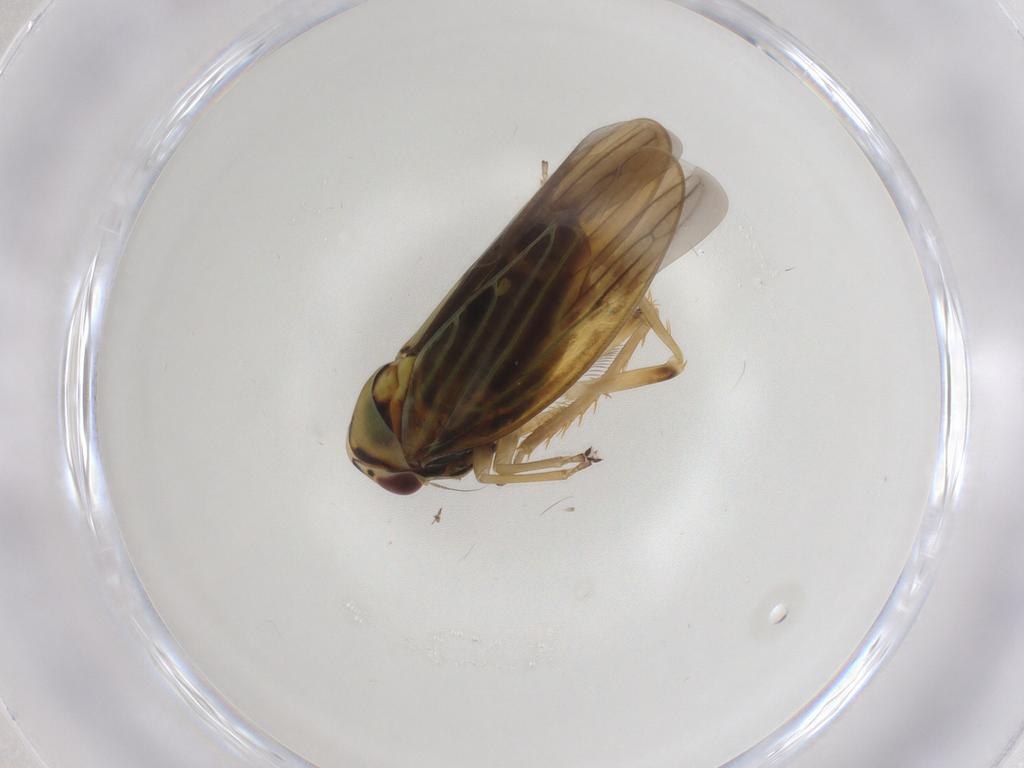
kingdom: Animalia
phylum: Arthropoda
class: Insecta
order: Hemiptera
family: Cicadellidae
